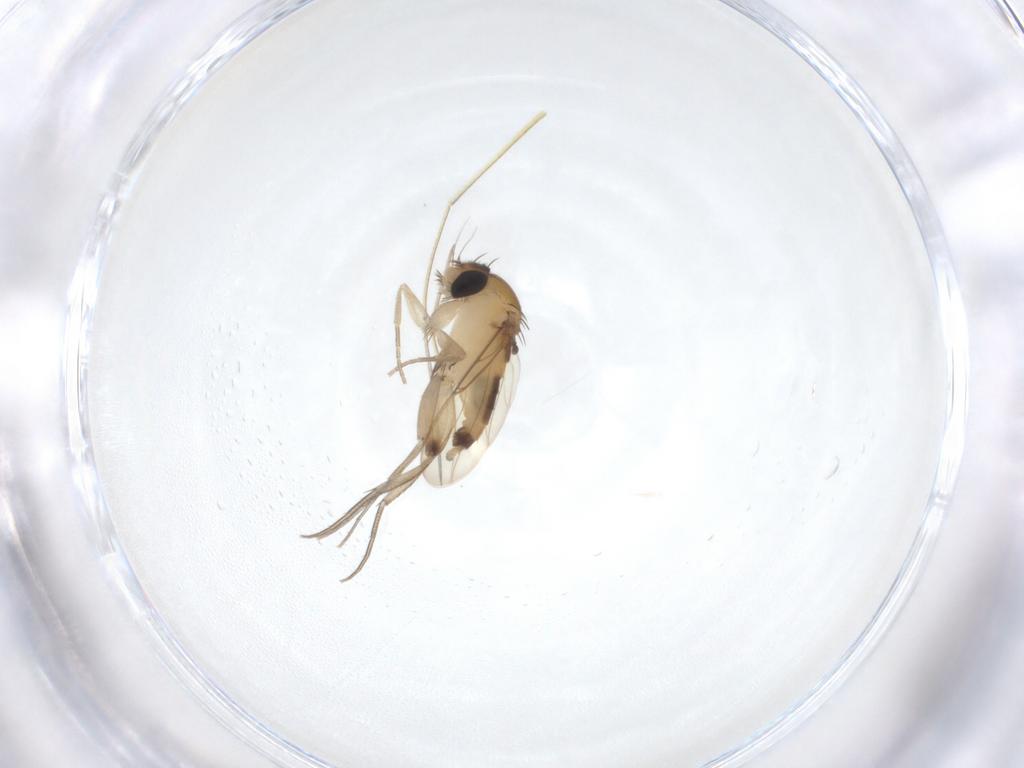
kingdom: Animalia
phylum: Arthropoda
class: Insecta
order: Diptera
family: Phoridae
